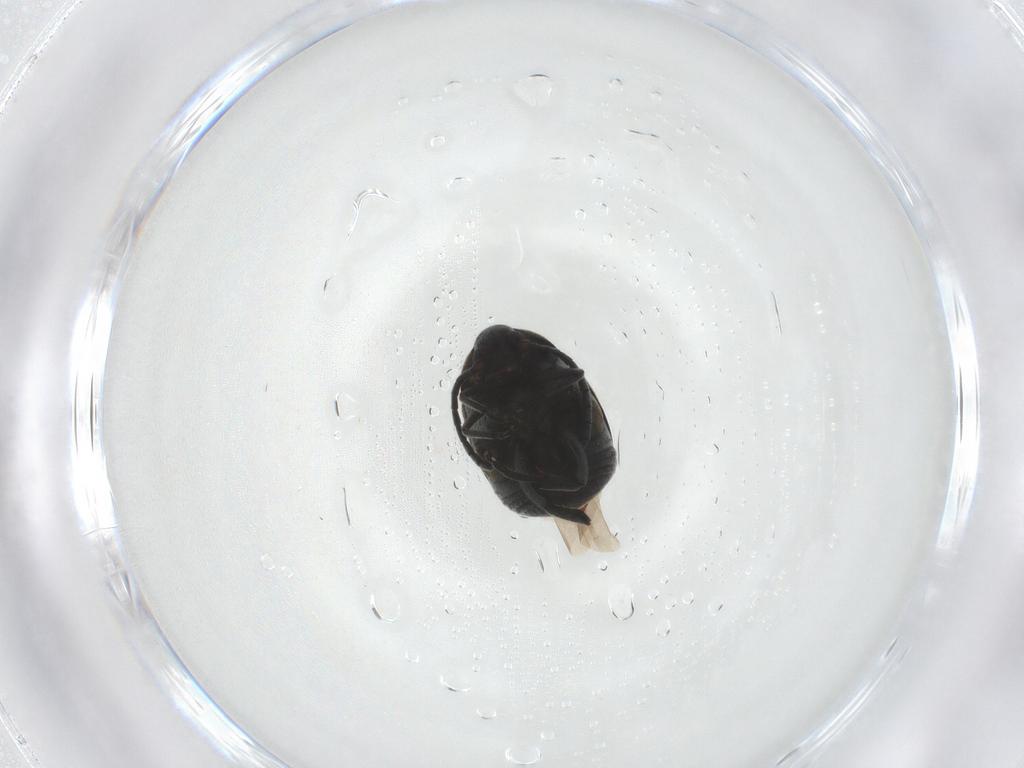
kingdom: Animalia
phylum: Arthropoda
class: Insecta
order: Coleoptera
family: Chrysomelidae
